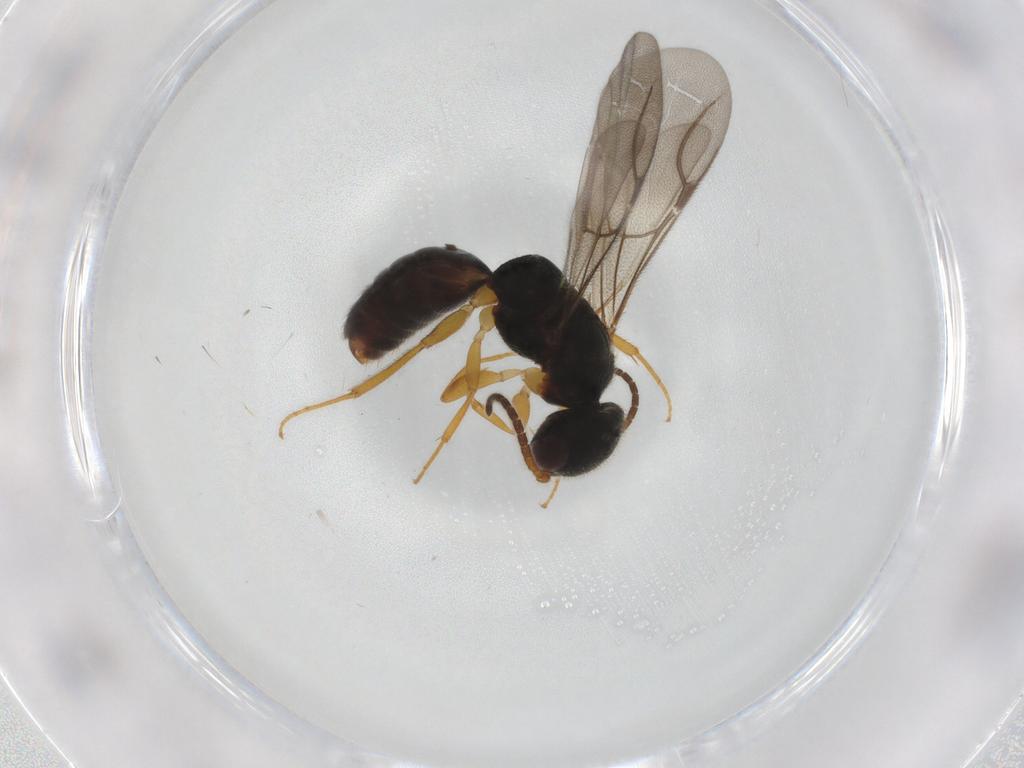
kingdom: Animalia
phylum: Arthropoda
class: Insecta
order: Hymenoptera
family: Bethylidae
